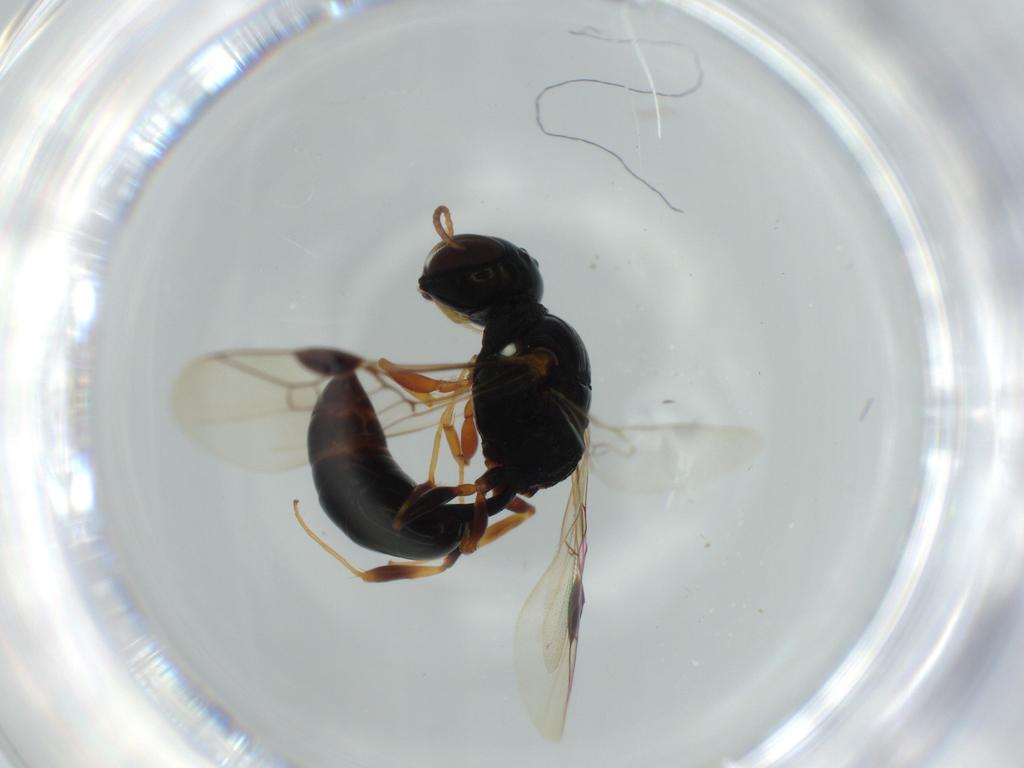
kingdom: Animalia
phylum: Arthropoda
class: Insecta
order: Hymenoptera
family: Crabronidae
